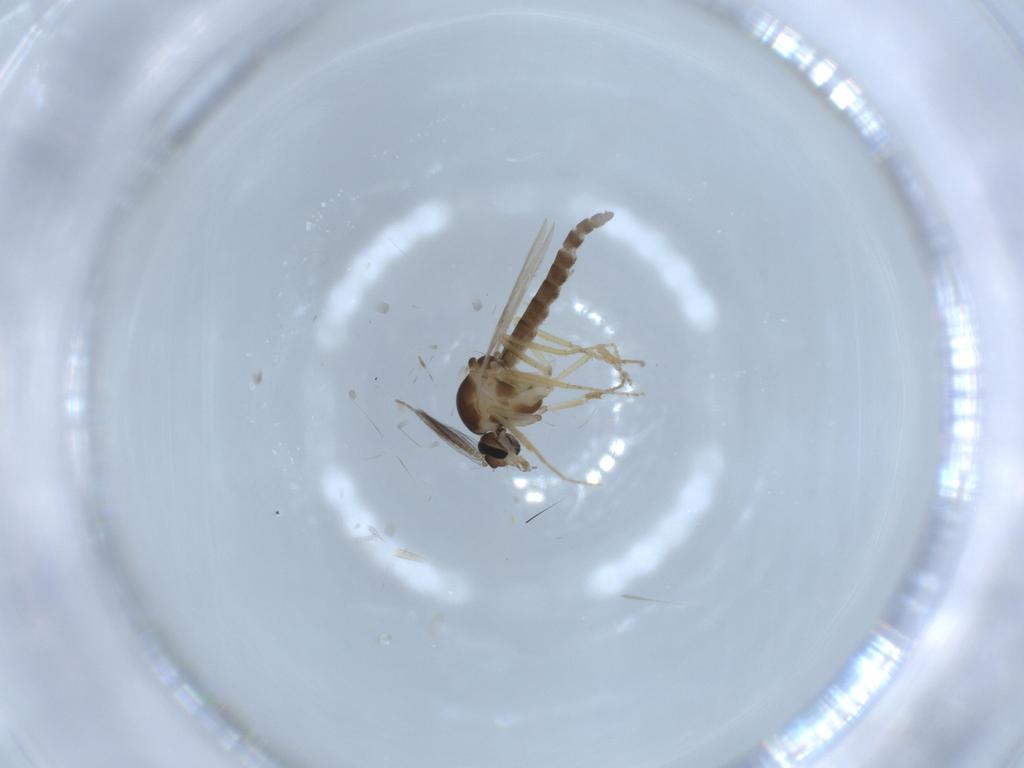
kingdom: Animalia
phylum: Arthropoda
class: Insecta
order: Diptera
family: Ceratopogonidae
